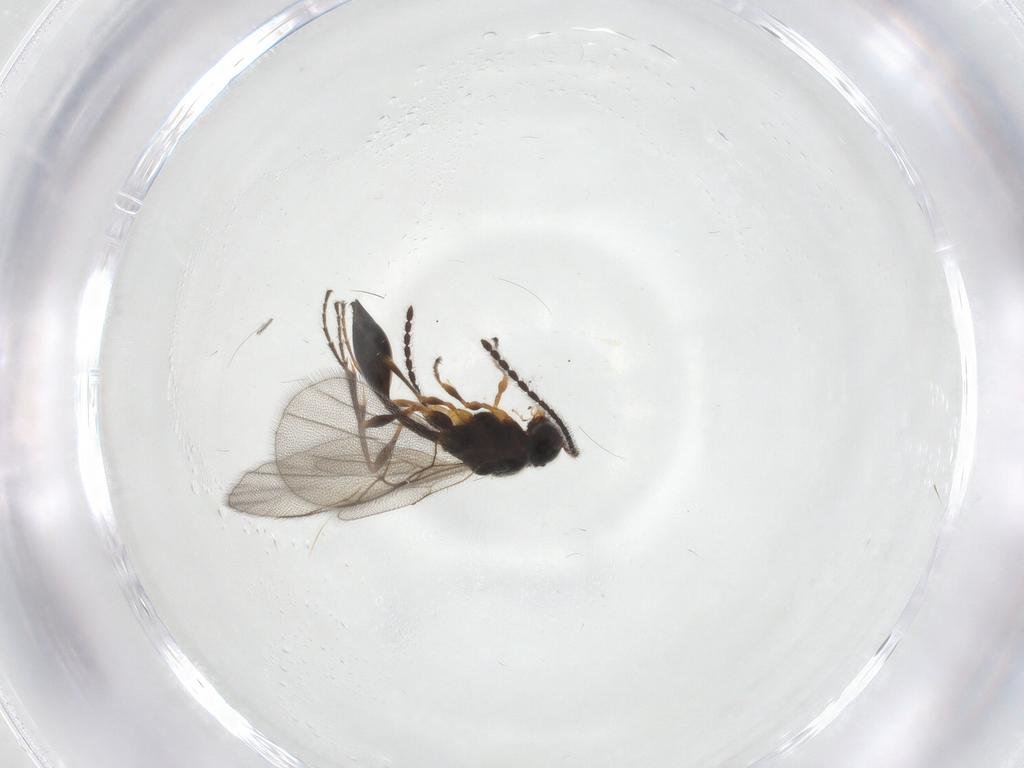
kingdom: Animalia
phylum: Arthropoda
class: Insecta
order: Hymenoptera
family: Diapriidae
